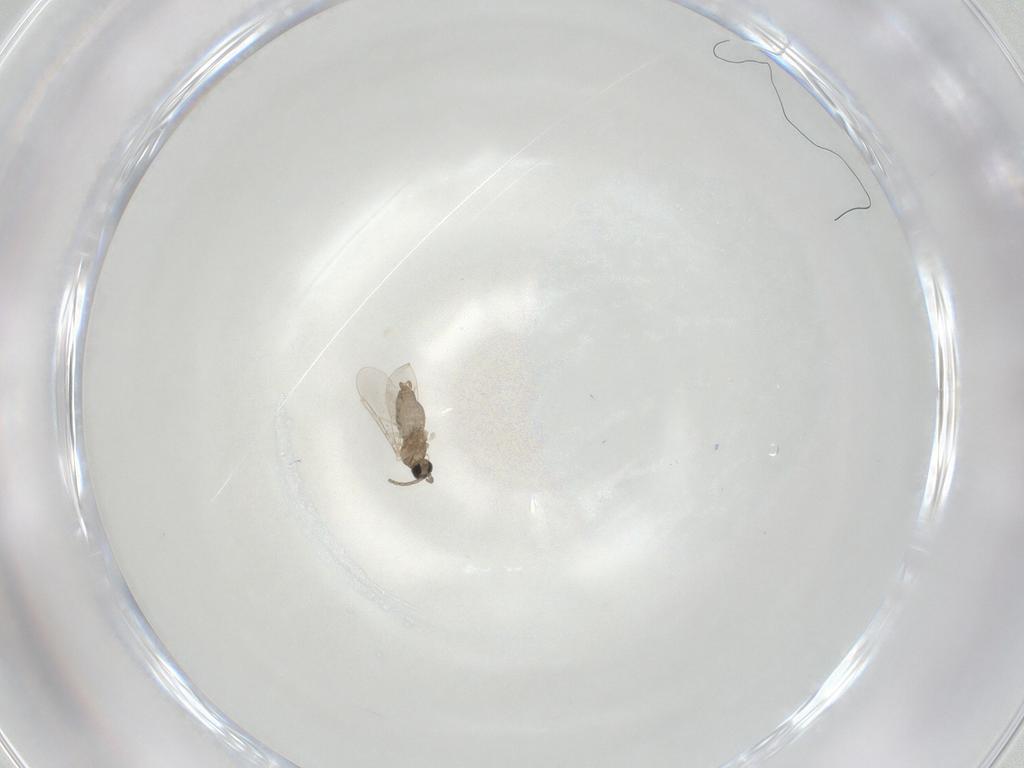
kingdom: Animalia
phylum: Arthropoda
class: Insecta
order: Diptera
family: Cecidomyiidae
